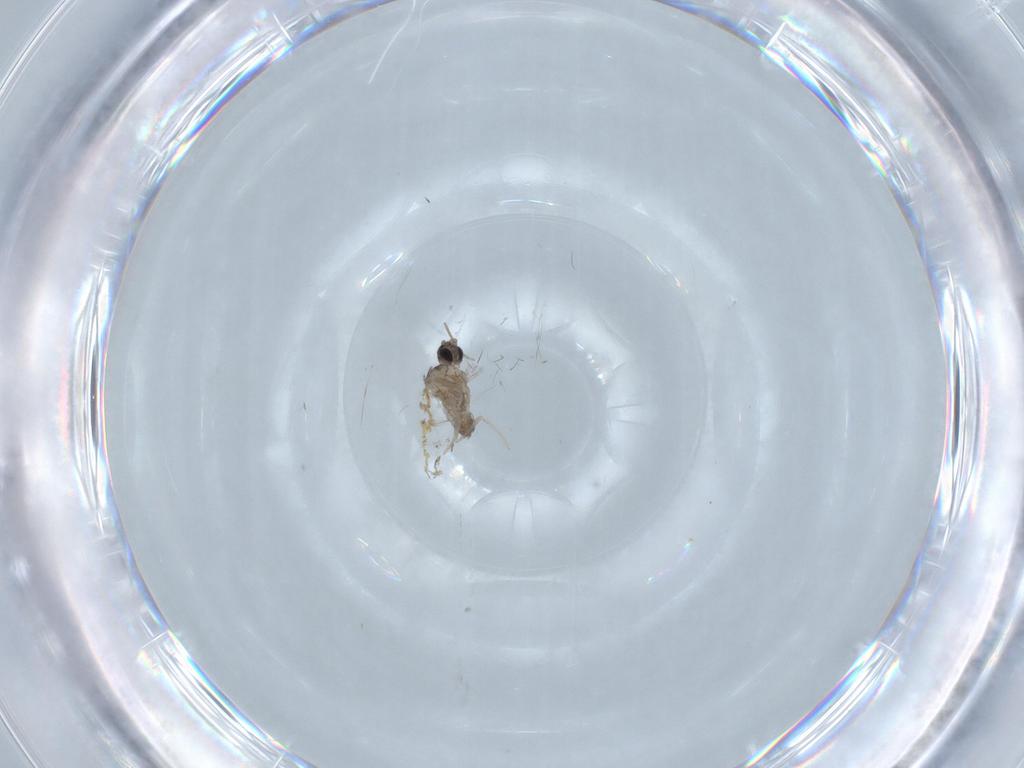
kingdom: Animalia
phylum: Arthropoda
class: Insecta
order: Diptera
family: Cecidomyiidae
